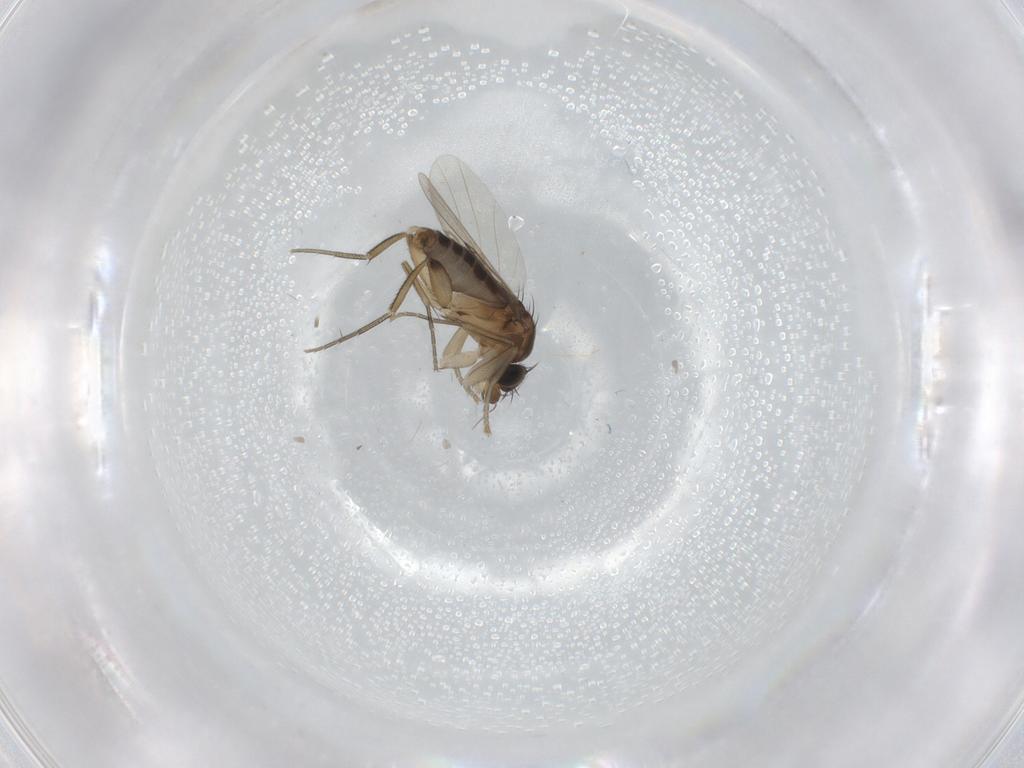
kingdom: Animalia
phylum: Arthropoda
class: Insecta
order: Diptera
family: Phoridae
